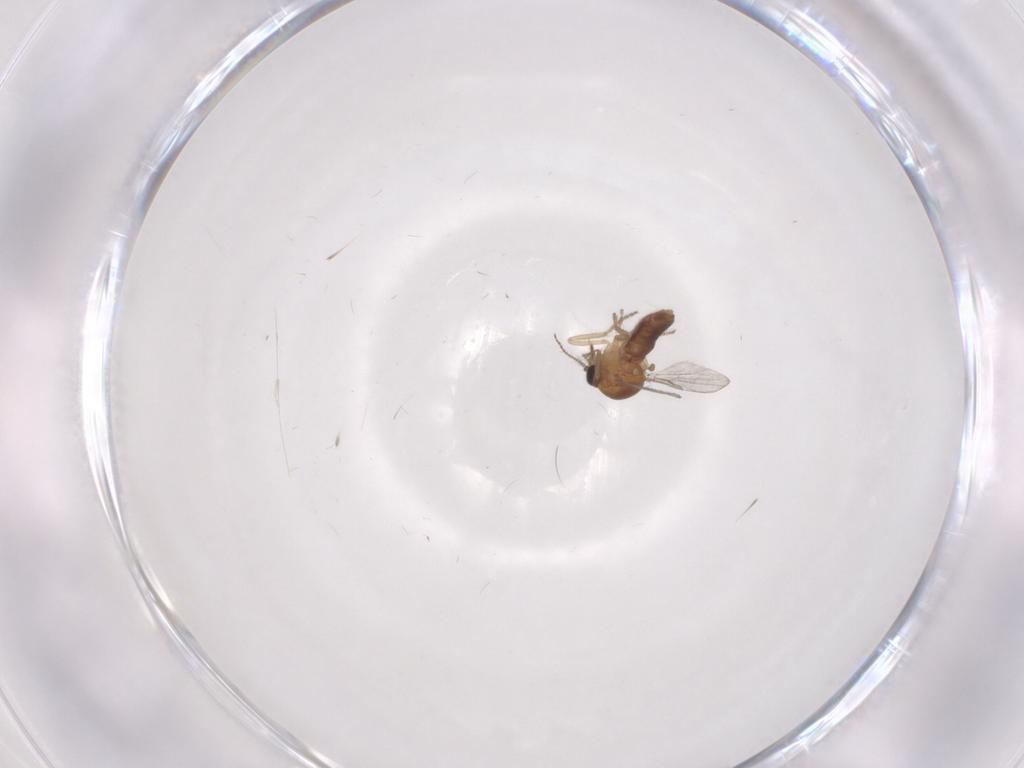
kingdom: Animalia
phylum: Arthropoda
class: Insecta
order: Diptera
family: Ceratopogonidae
